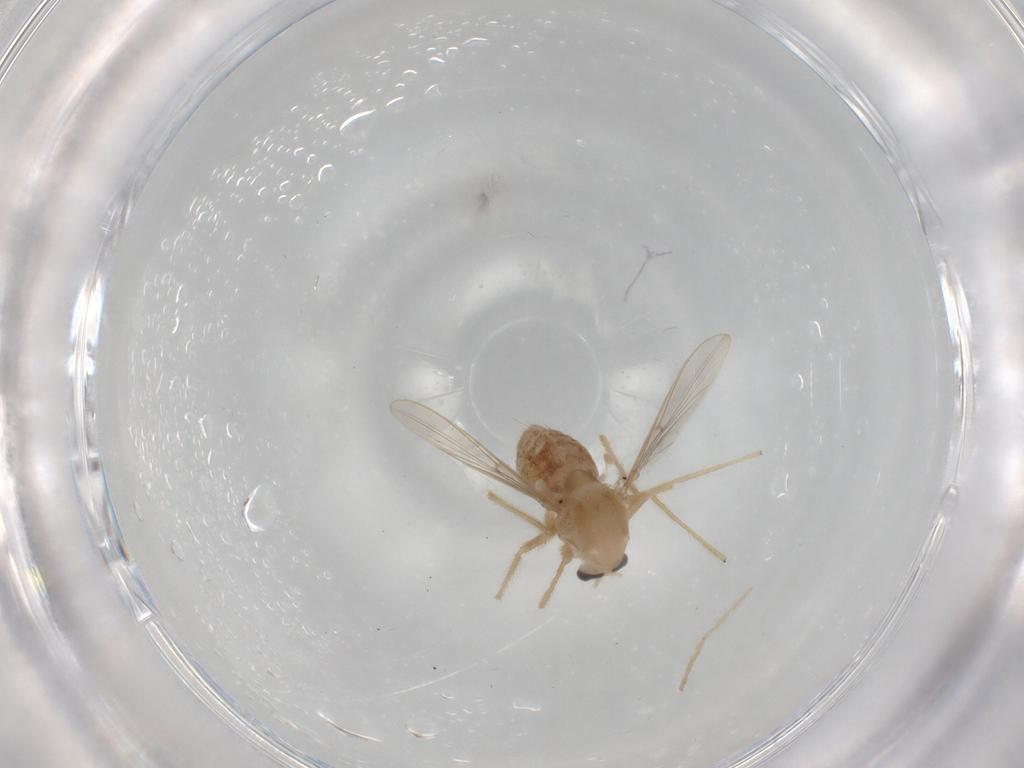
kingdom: Animalia
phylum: Arthropoda
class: Insecta
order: Diptera
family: Chironomidae
